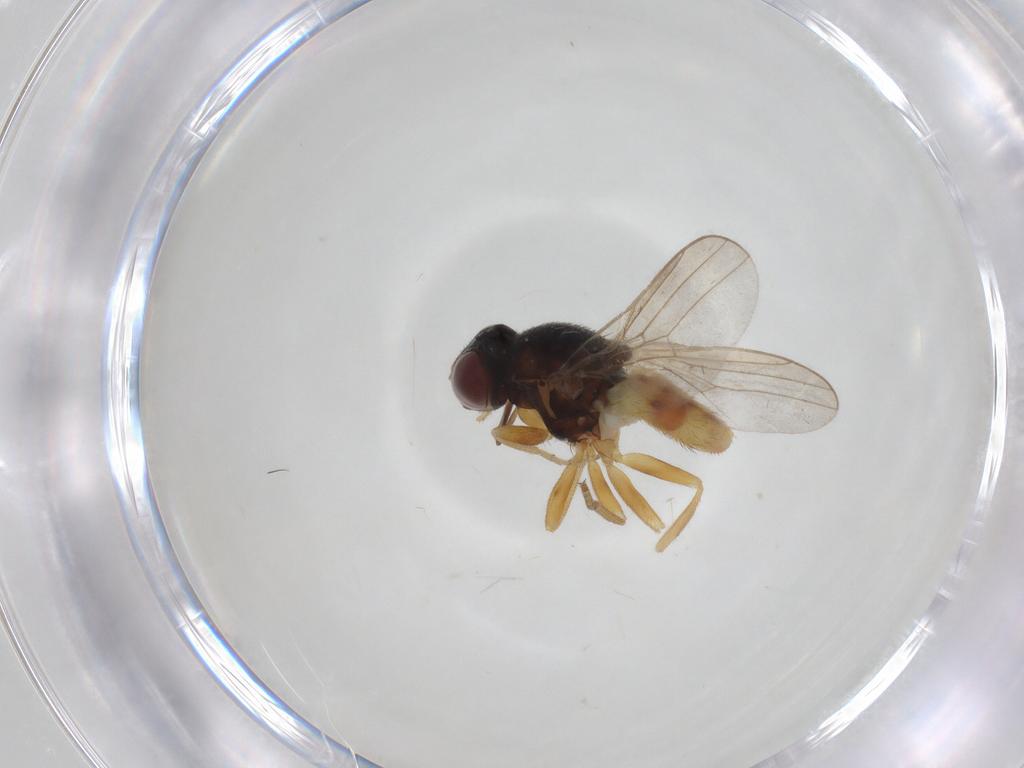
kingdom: Animalia
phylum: Arthropoda
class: Insecta
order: Diptera
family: Chloropidae
